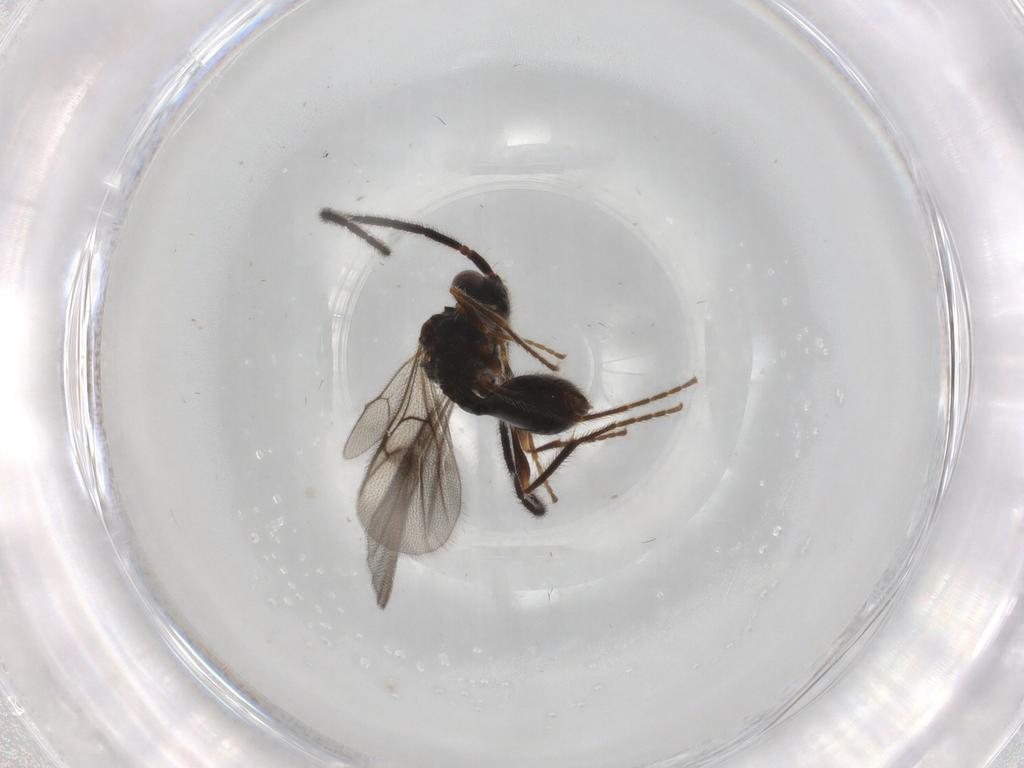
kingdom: Animalia
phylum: Arthropoda
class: Insecta
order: Hymenoptera
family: Diapriidae
